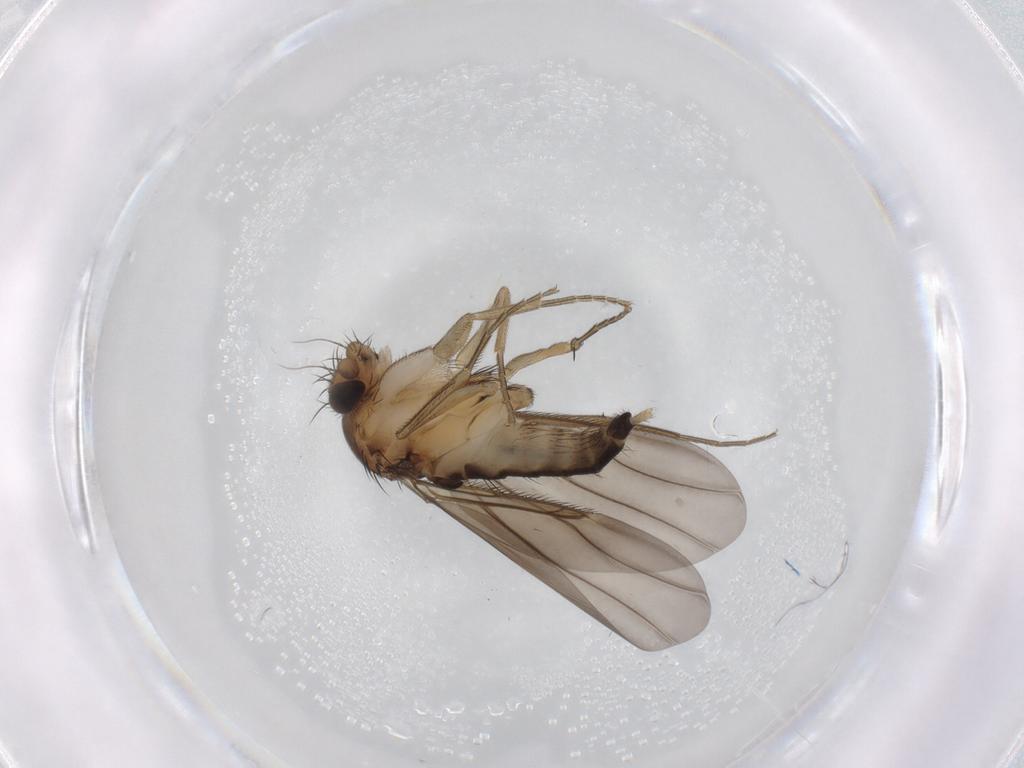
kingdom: Animalia
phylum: Arthropoda
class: Insecta
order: Diptera
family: Phoridae
